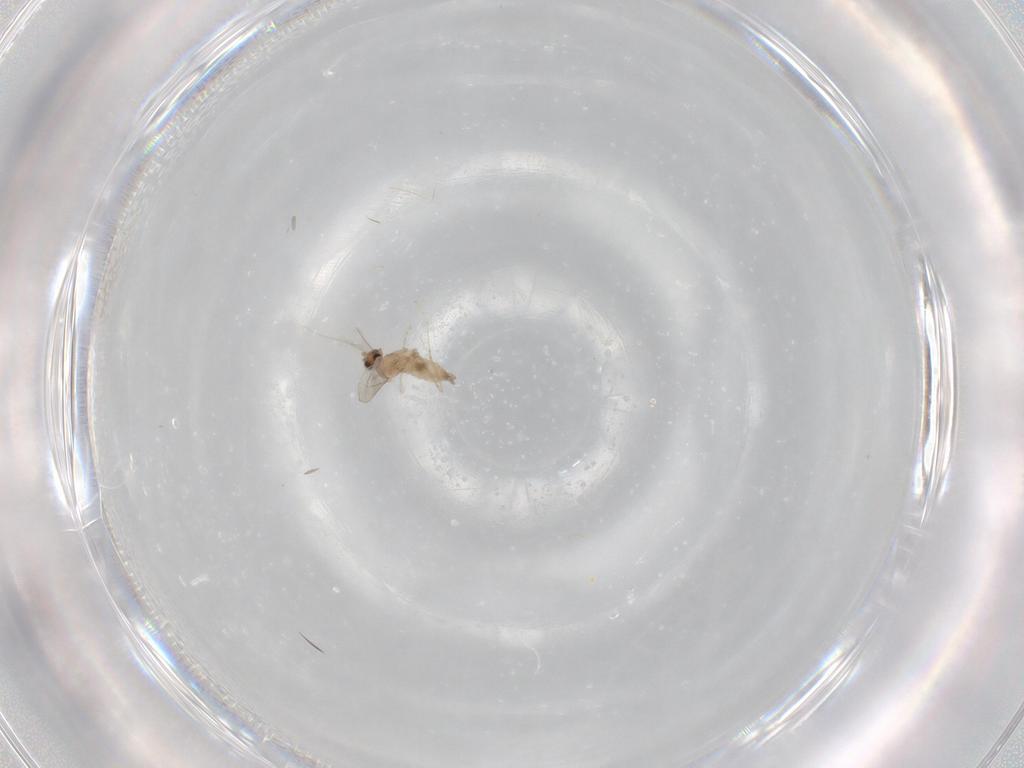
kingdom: Animalia
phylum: Arthropoda
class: Insecta
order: Diptera
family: Cecidomyiidae
